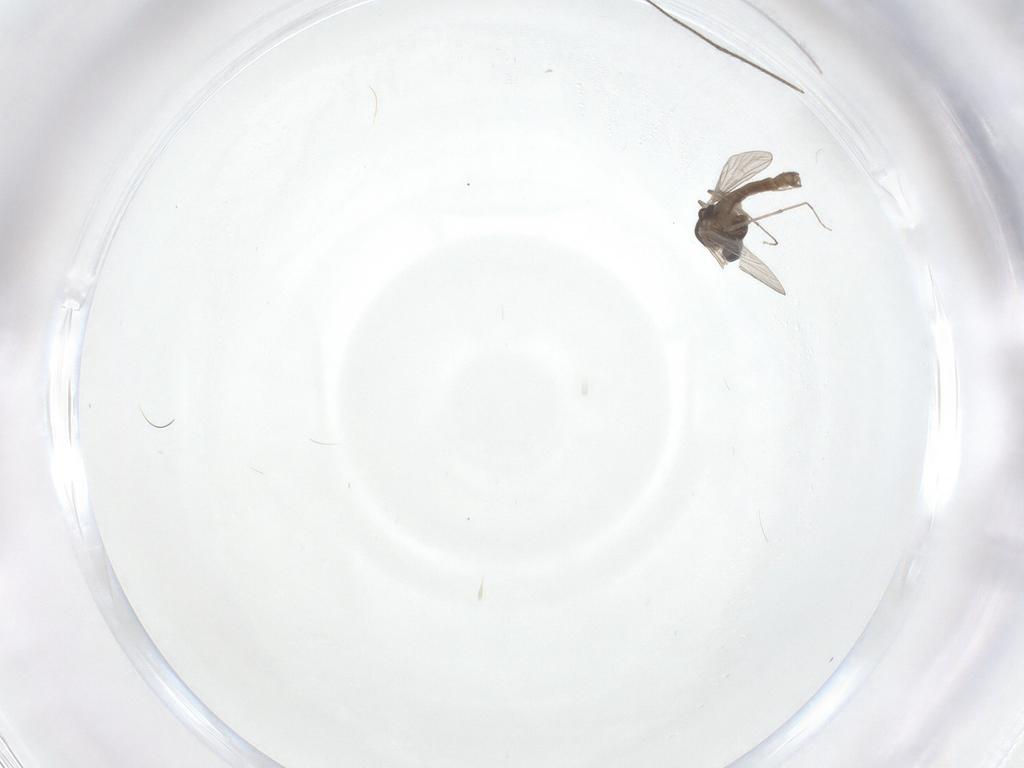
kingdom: Animalia
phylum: Arthropoda
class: Insecta
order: Diptera
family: Chironomidae
